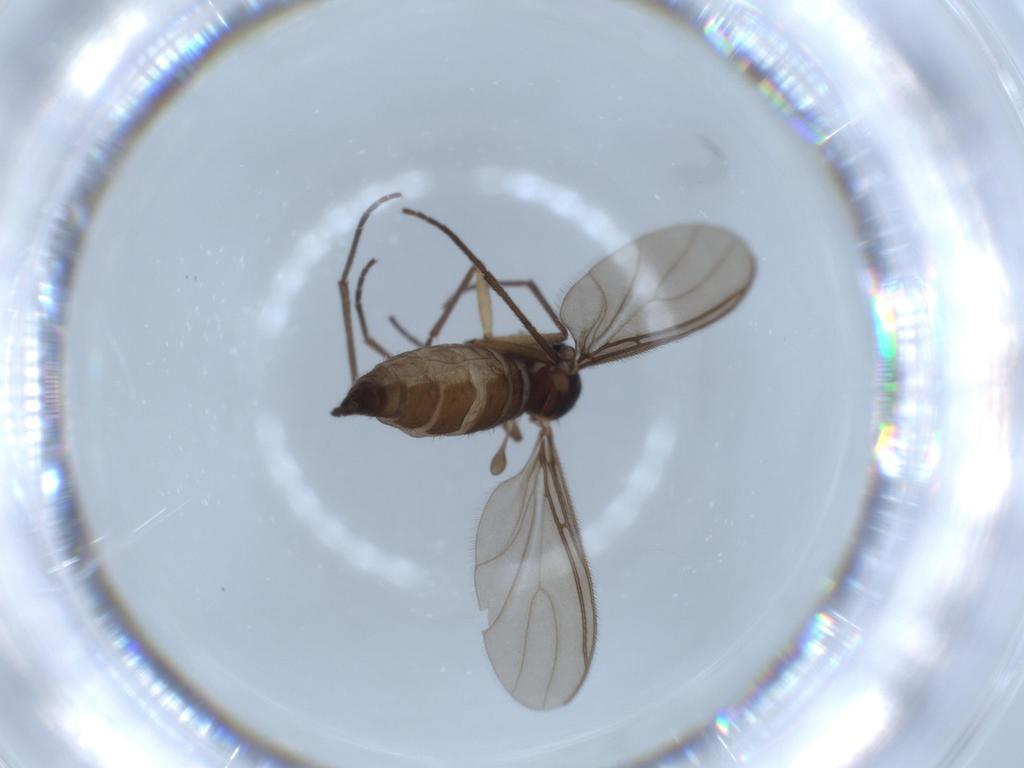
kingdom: Animalia
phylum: Arthropoda
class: Insecta
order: Diptera
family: Sciaridae
